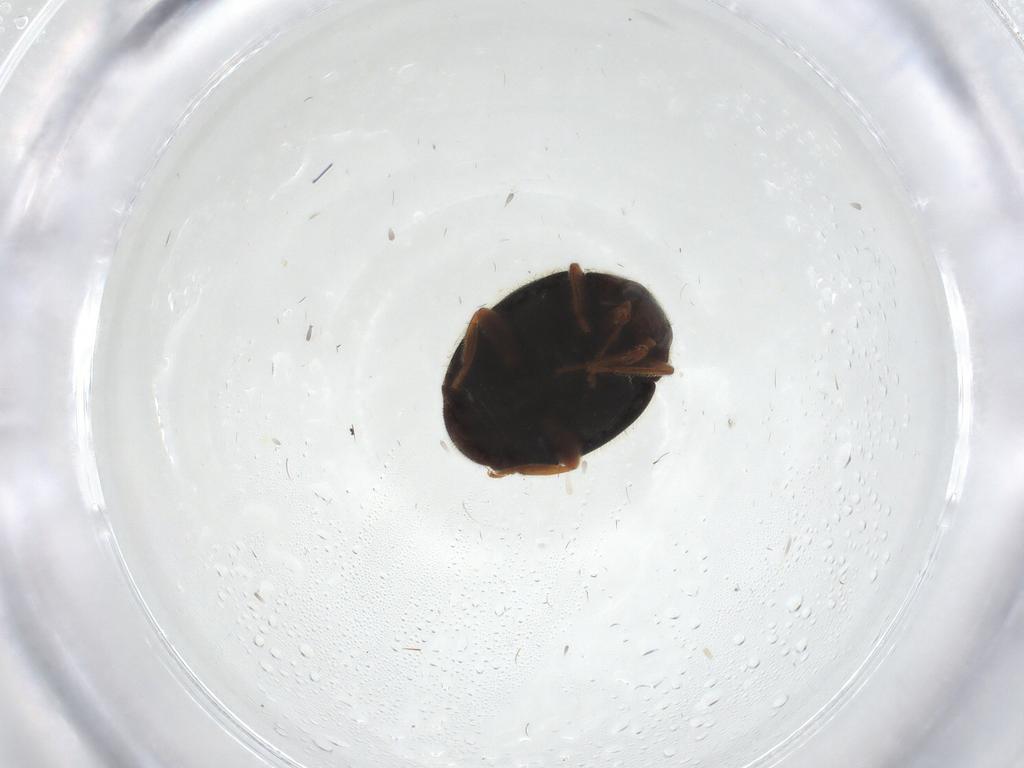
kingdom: Animalia
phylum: Arthropoda
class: Insecta
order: Coleoptera
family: Coccinellidae
